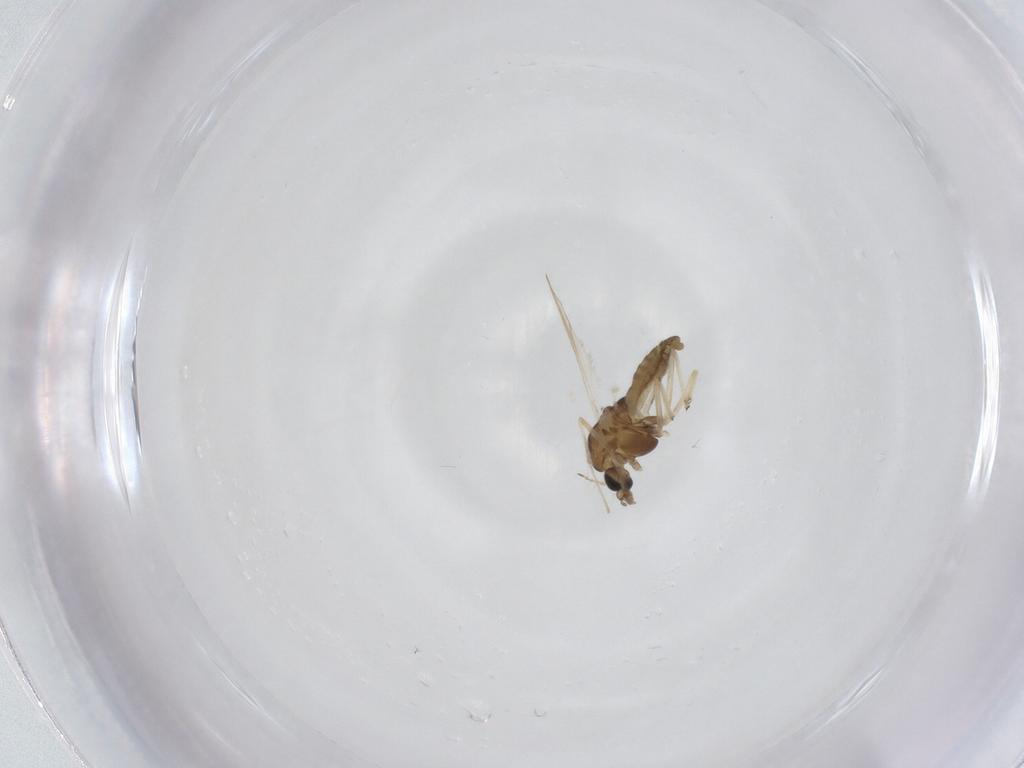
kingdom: Animalia
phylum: Arthropoda
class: Insecta
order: Diptera
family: Chironomidae
